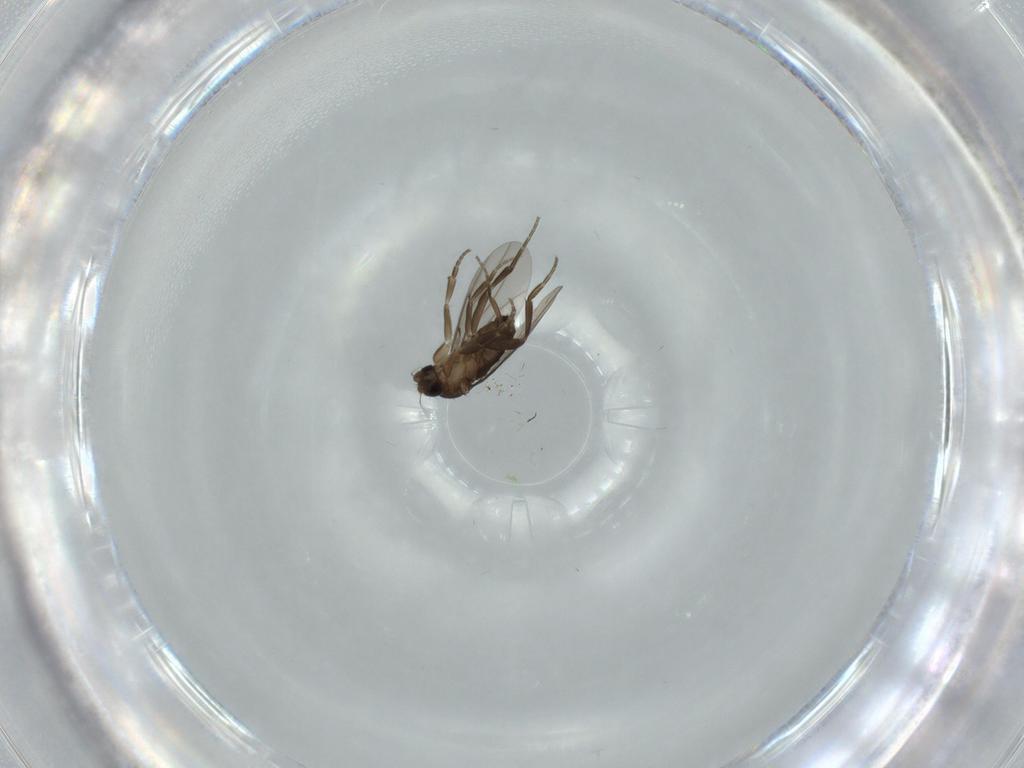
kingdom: Animalia
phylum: Arthropoda
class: Insecta
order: Diptera
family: Phoridae
